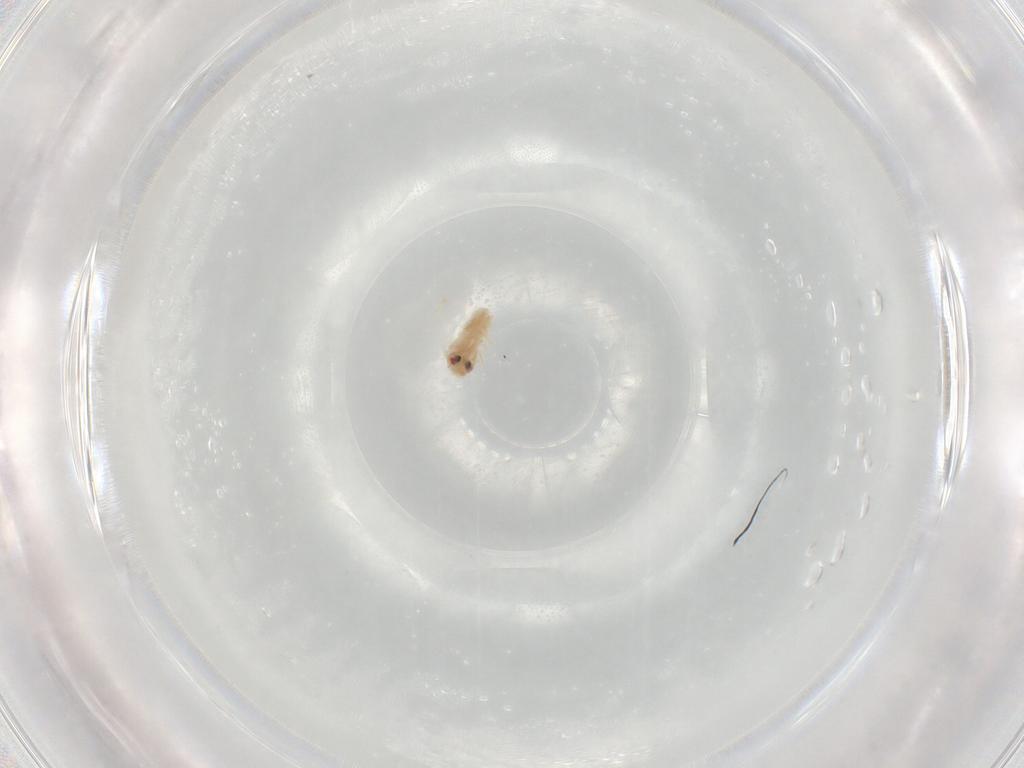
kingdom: Animalia
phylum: Arthropoda
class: Insecta
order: Hemiptera
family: Aleyrodidae
